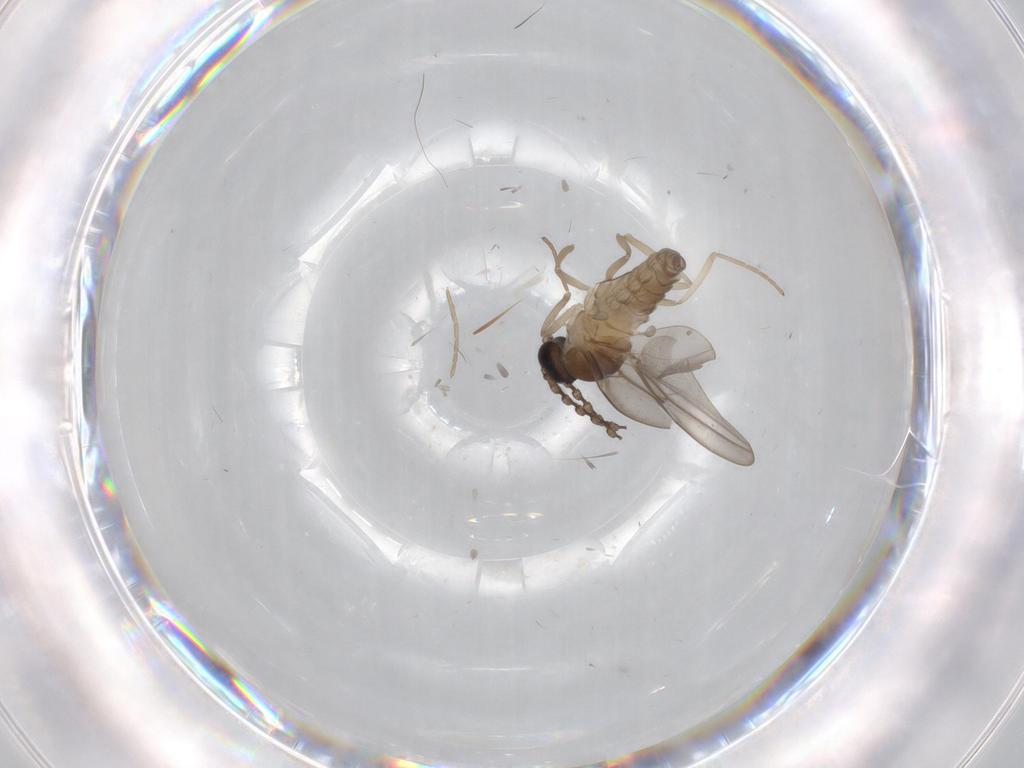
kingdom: Animalia
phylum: Arthropoda
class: Insecta
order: Diptera
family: Cecidomyiidae
